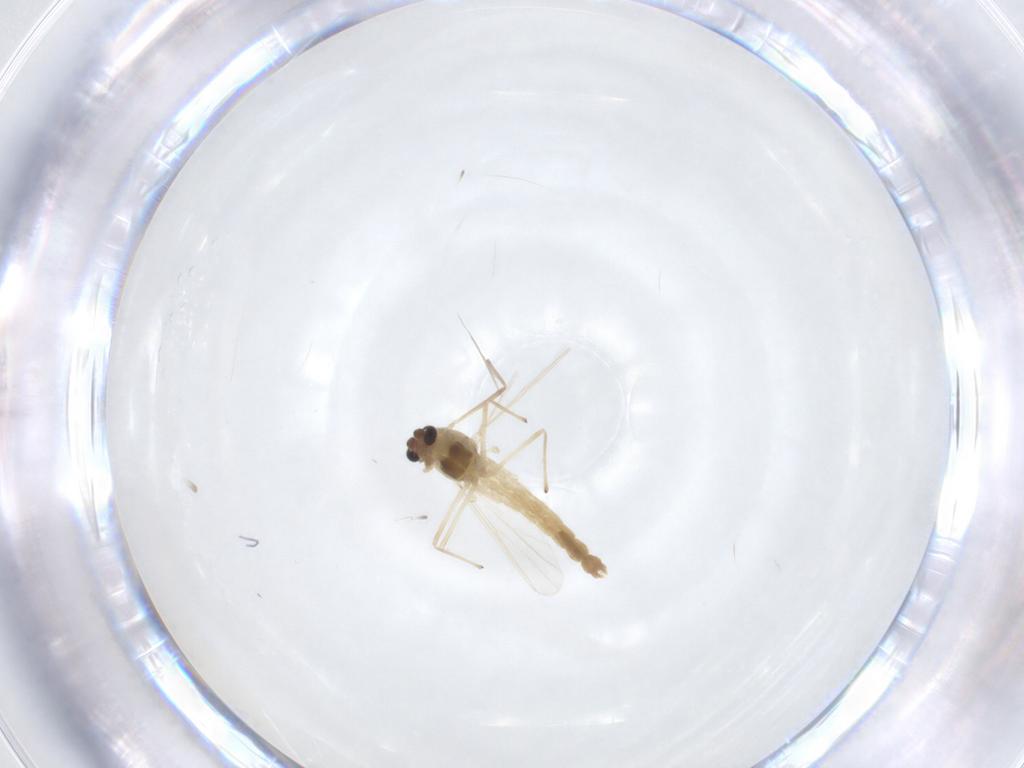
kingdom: Animalia
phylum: Arthropoda
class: Insecta
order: Diptera
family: Chironomidae
